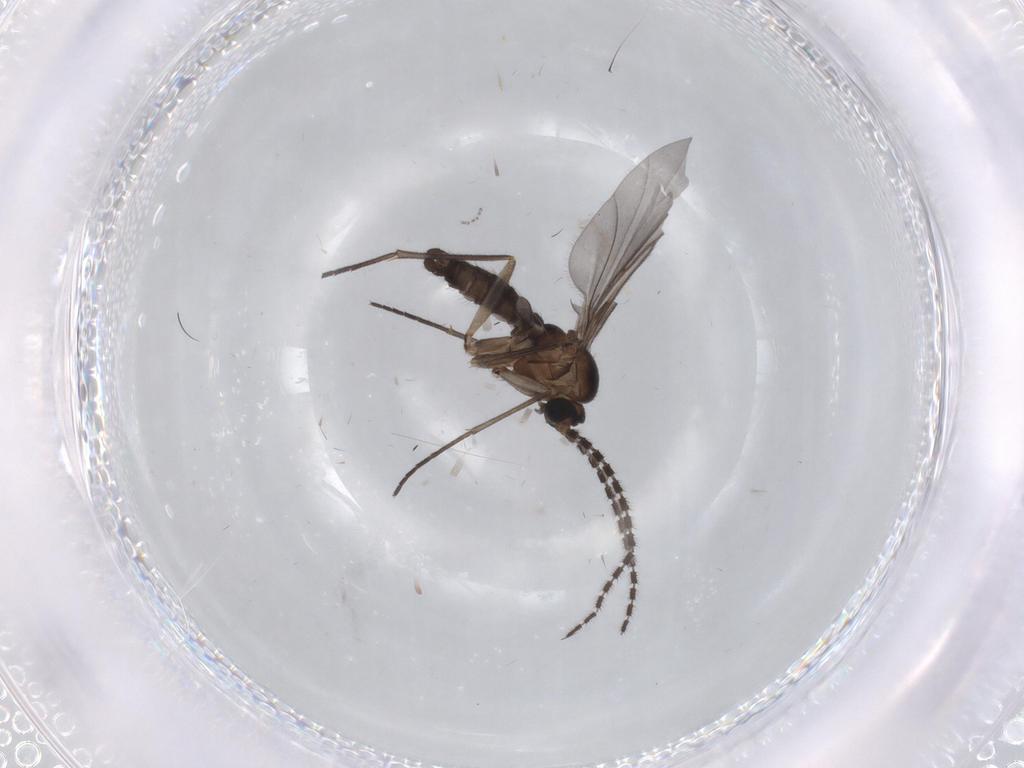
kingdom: Animalia
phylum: Arthropoda
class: Insecta
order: Diptera
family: Sciaridae
